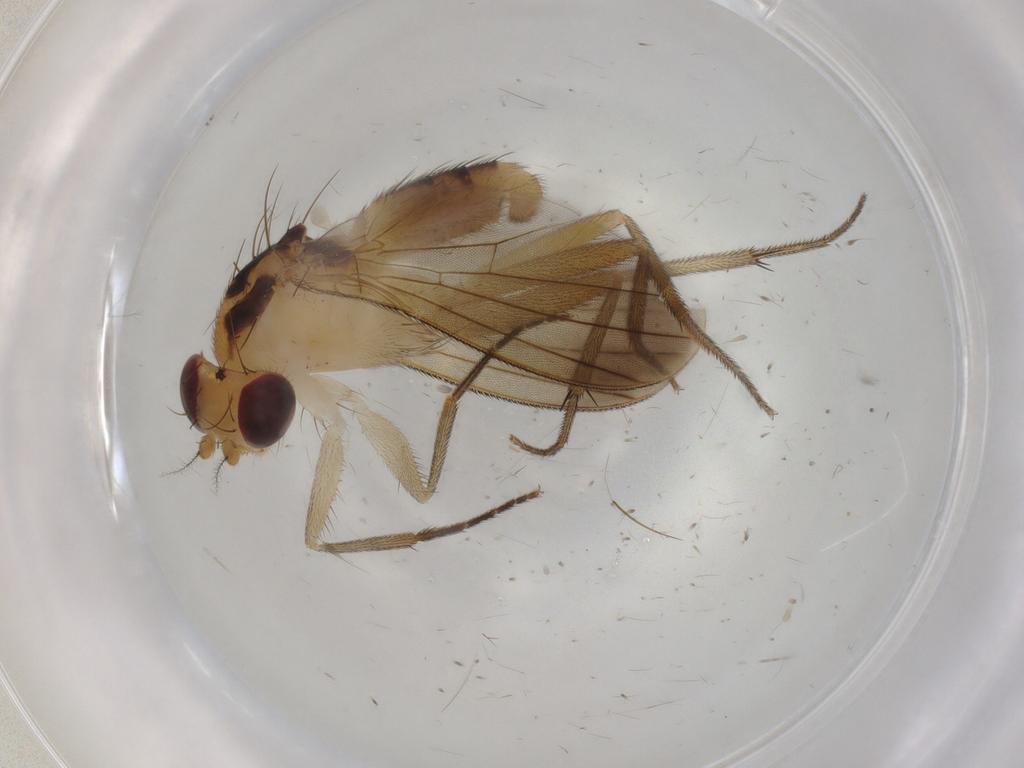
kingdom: Animalia
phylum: Arthropoda
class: Insecta
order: Diptera
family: Clusiidae
